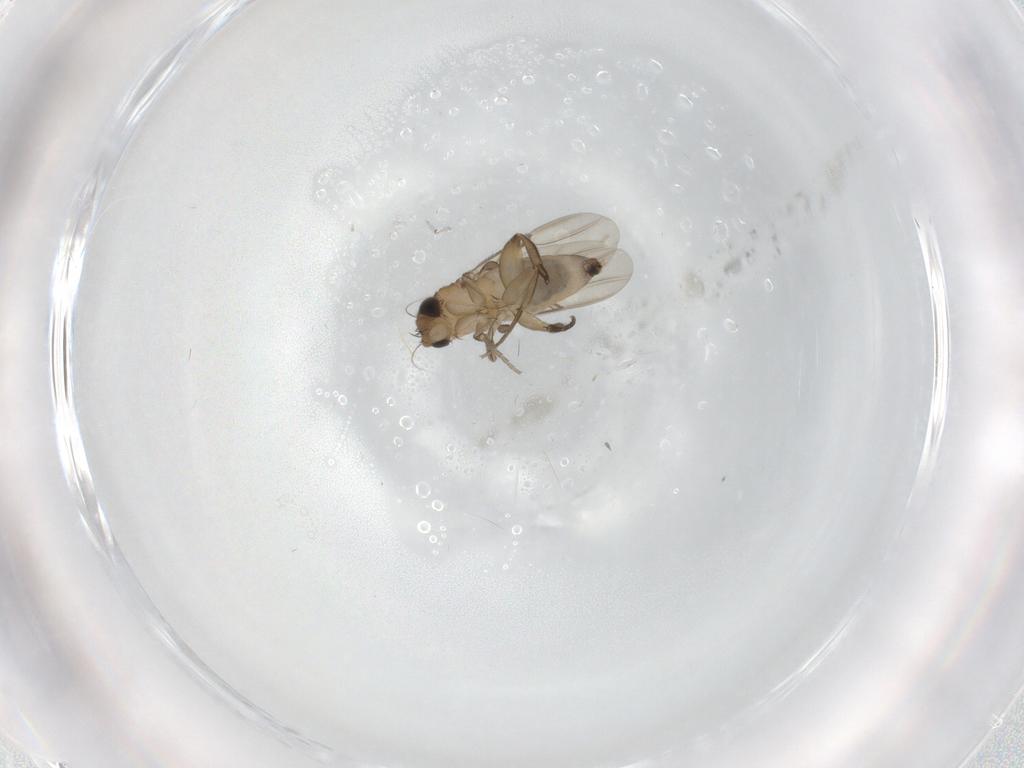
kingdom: Animalia
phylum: Arthropoda
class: Insecta
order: Diptera
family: Phoridae
